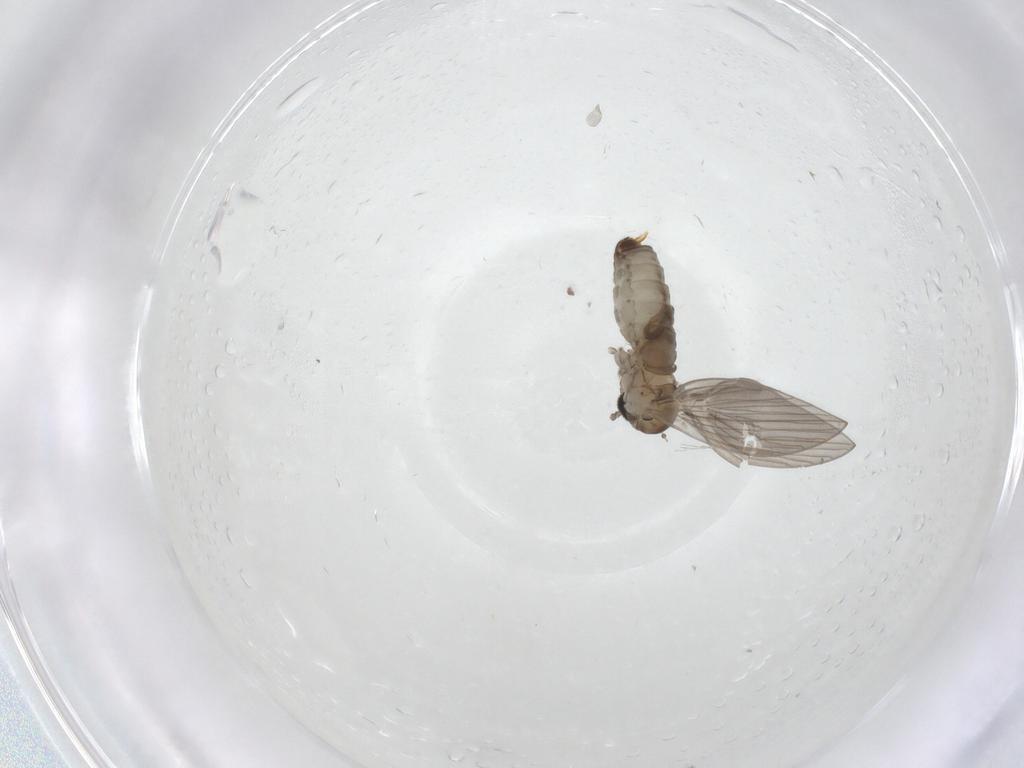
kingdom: Animalia
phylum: Arthropoda
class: Insecta
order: Diptera
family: Psychodidae
